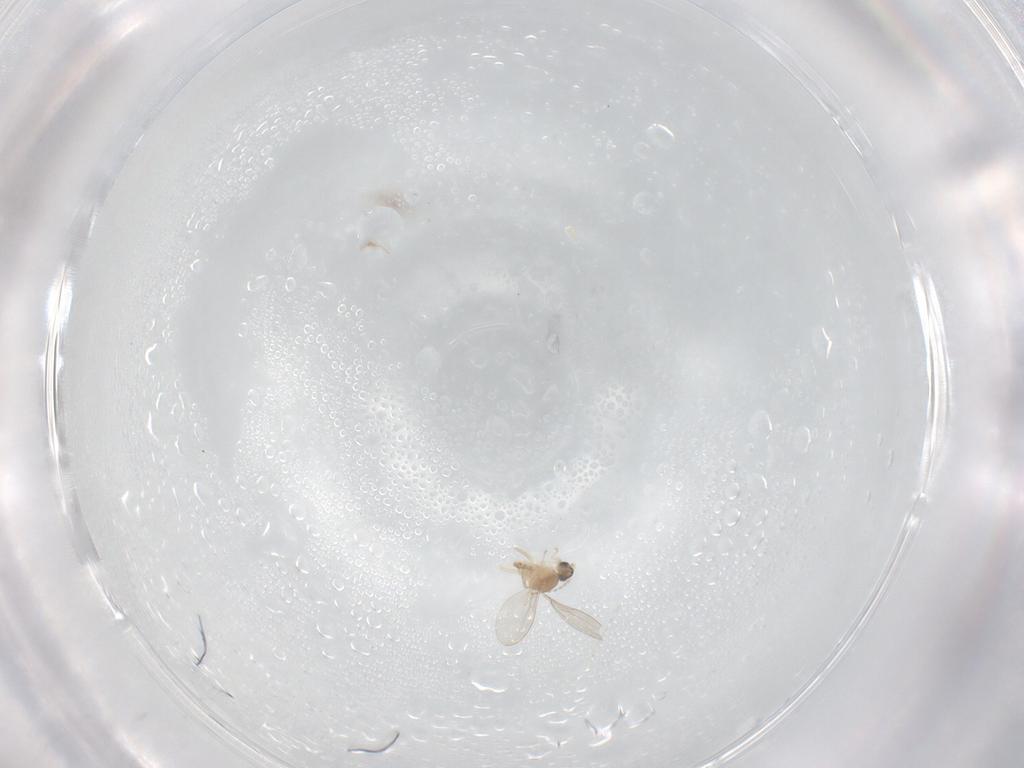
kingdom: Animalia
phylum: Arthropoda
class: Insecta
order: Diptera
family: Cecidomyiidae
